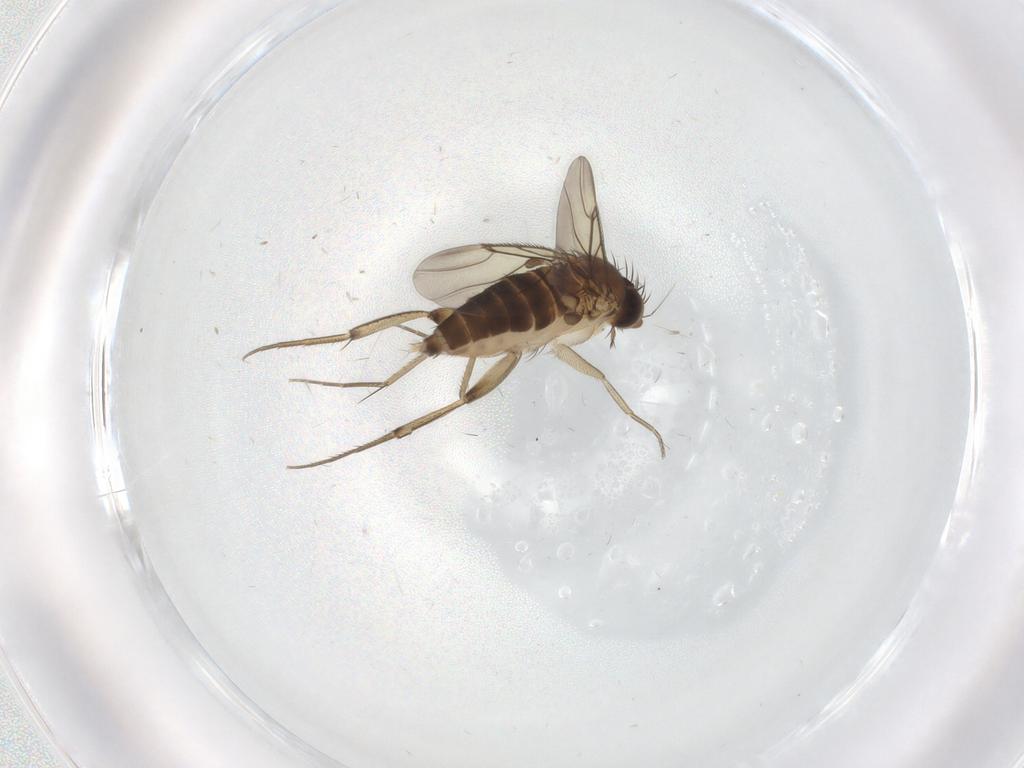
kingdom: Animalia
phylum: Arthropoda
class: Insecta
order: Diptera
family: Phoridae
